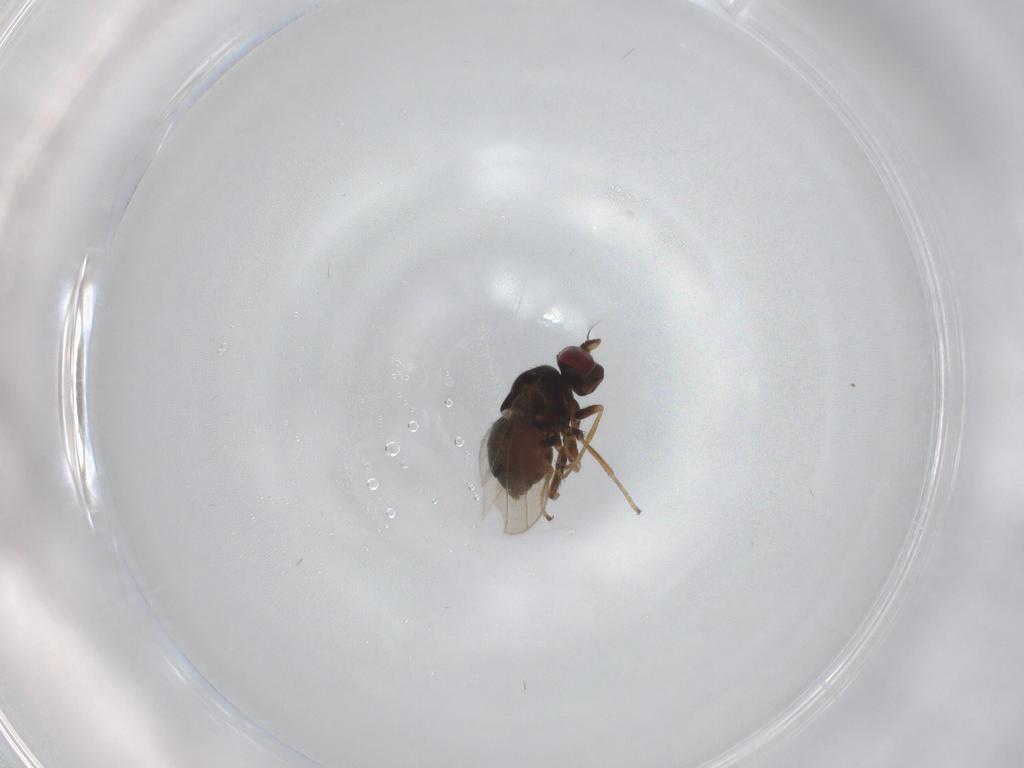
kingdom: Animalia
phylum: Arthropoda
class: Insecta
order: Diptera
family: Ephydridae
